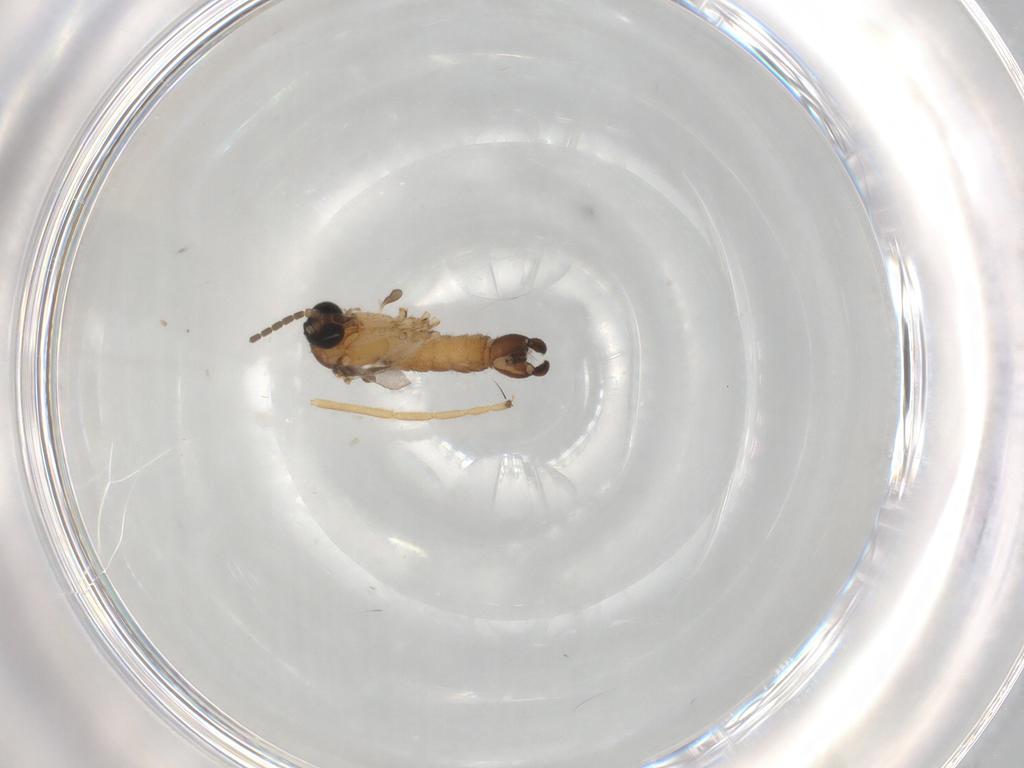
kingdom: Animalia
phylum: Arthropoda
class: Insecta
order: Diptera
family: Sciaridae
